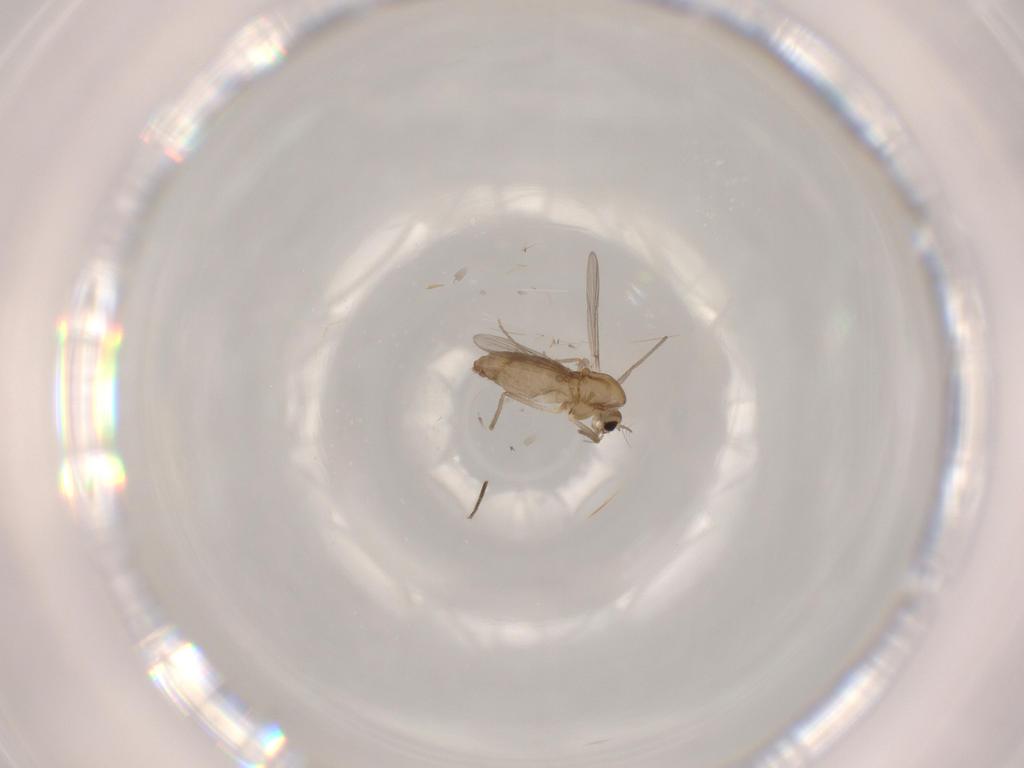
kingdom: Animalia
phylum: Arthropoda
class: Insecta
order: Diptera
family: Chironomidae
